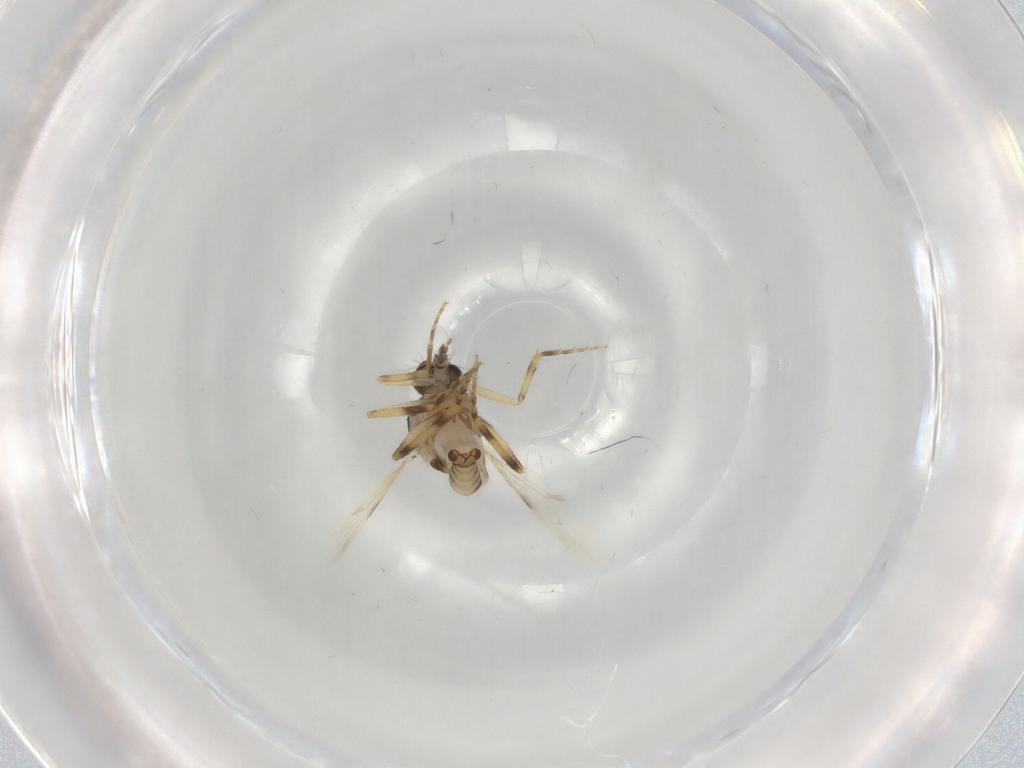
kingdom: Animalia
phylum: Arthropoda
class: Insecta
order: Diptera
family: Ceratopogonidae
